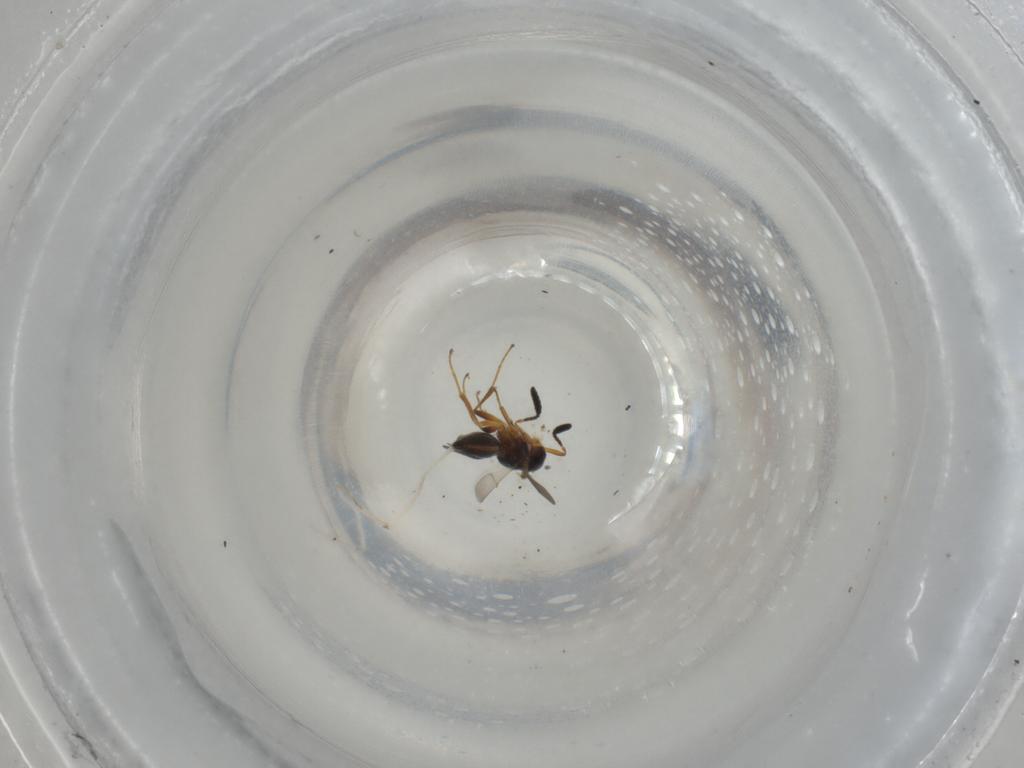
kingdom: Animalia
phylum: Arthropoda
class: Insecta
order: Hymenoptera
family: Scelionidae
